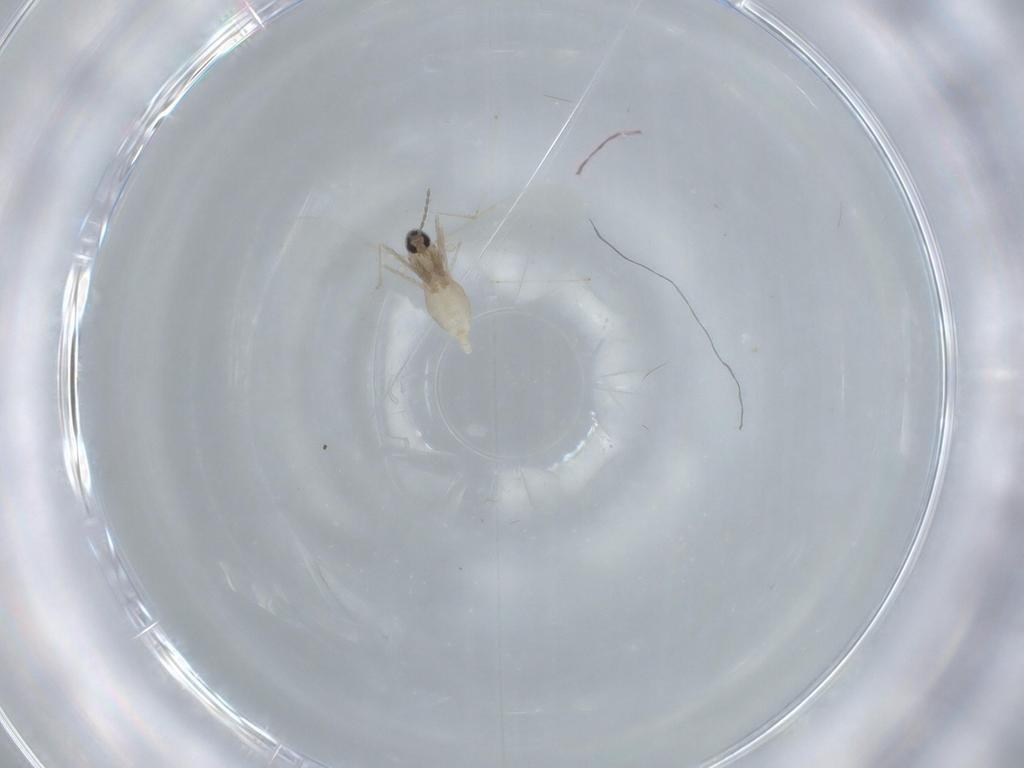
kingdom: Animalia
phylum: Arthropoda
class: Insecta
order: Diptera
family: Cecidomyiidae
